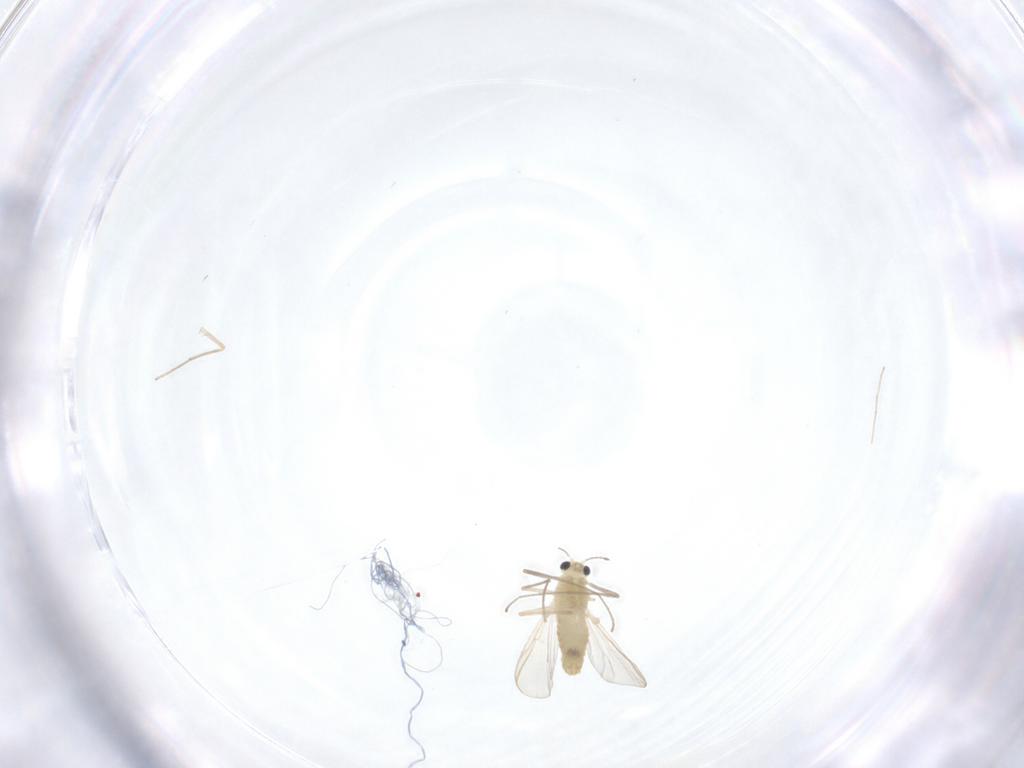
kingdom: Animalia
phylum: Arthropoda
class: Insecta
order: Diptera
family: Chironomidae
